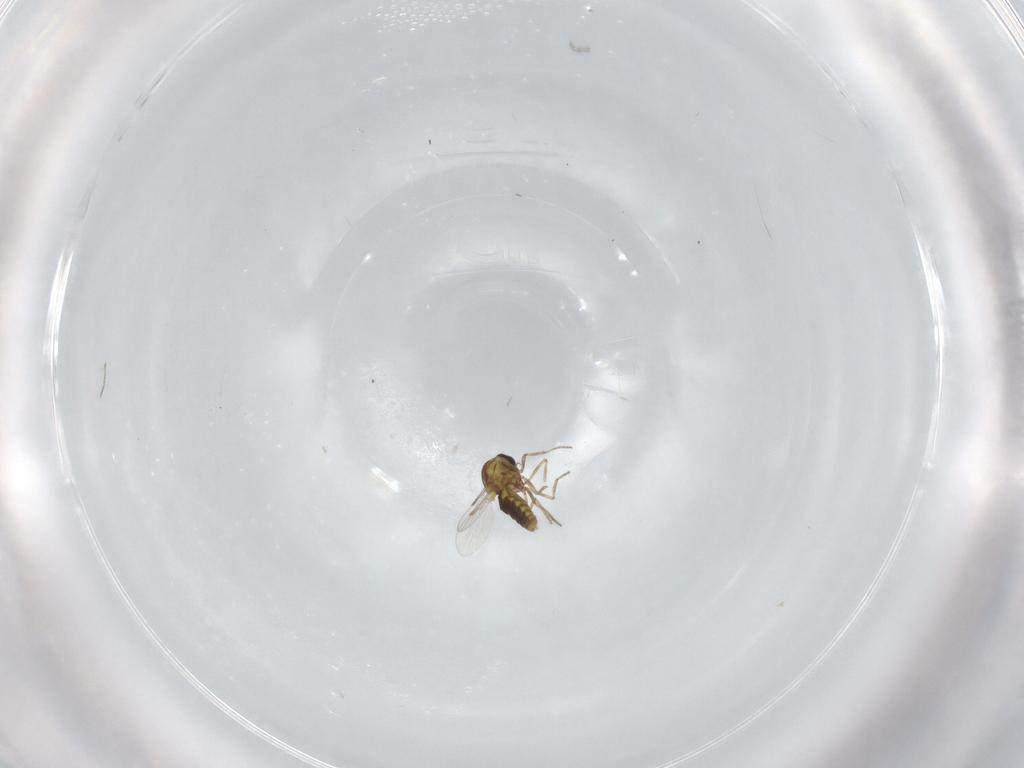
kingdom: Animalia
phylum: Arthropoda
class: Insecta
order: Diptera
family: Ceratopogonidae
